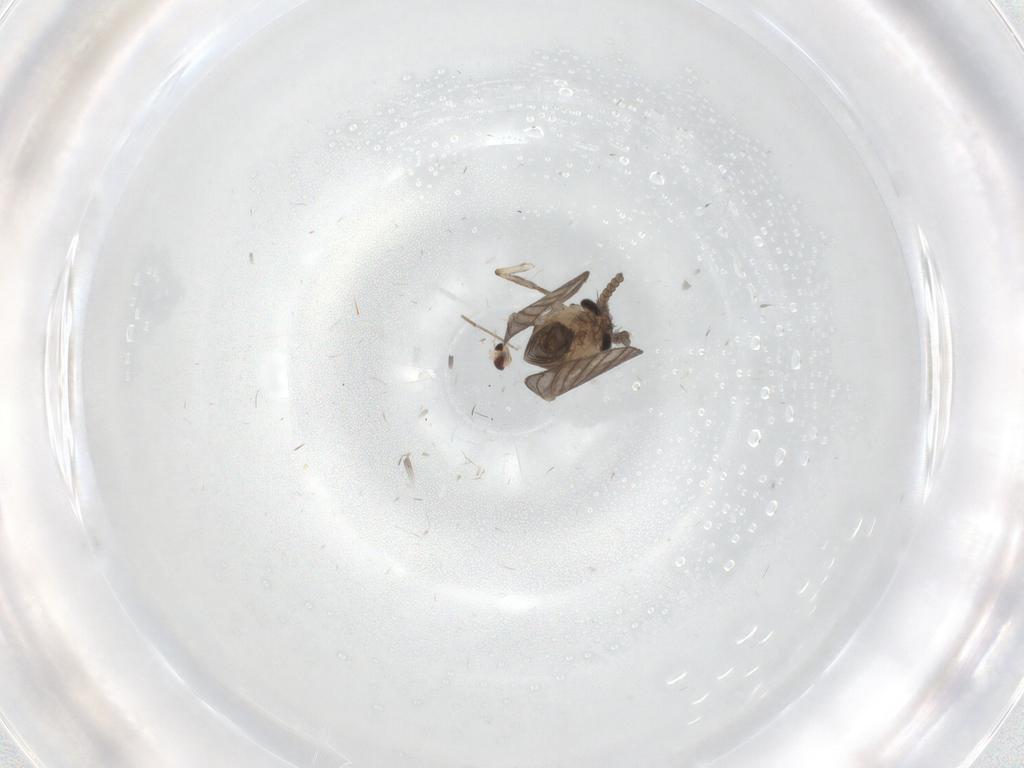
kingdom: Animalia
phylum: Arthropoda
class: Insecta
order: Diptera
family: Psychodidae
